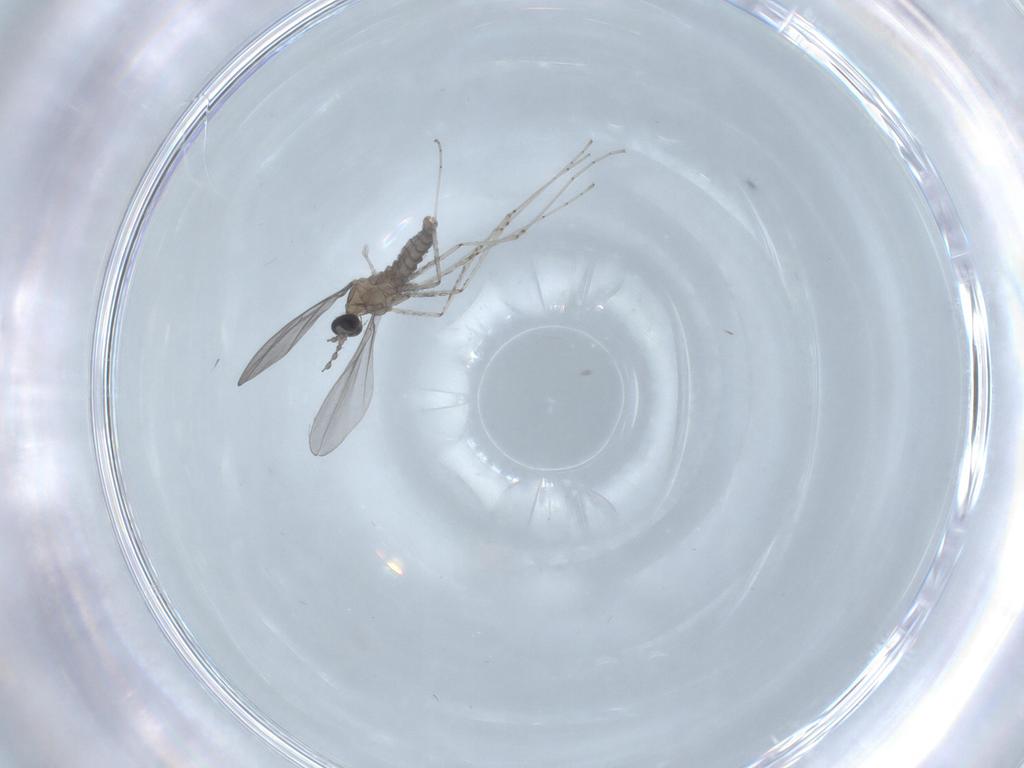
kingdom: Animalia
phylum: Arthropoda
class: Insecta
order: Diptera
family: Cecidomyiidae
